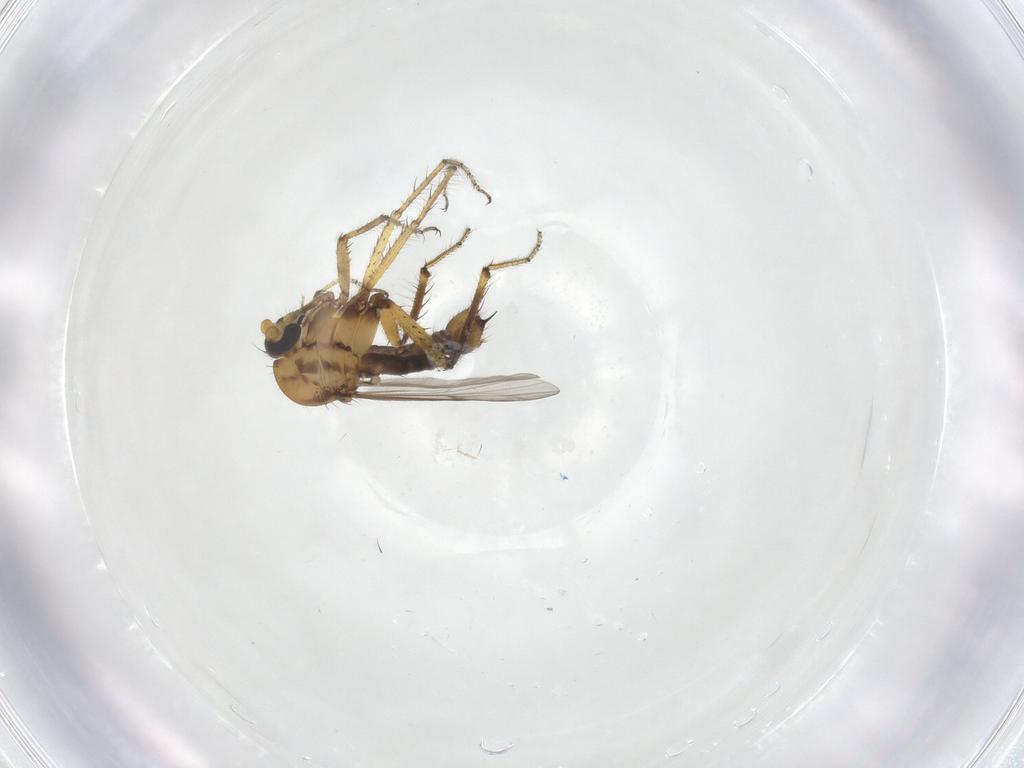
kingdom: Animalia
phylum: Arthropoda
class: Insecta
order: Diptera
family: Ceratopogonidae
